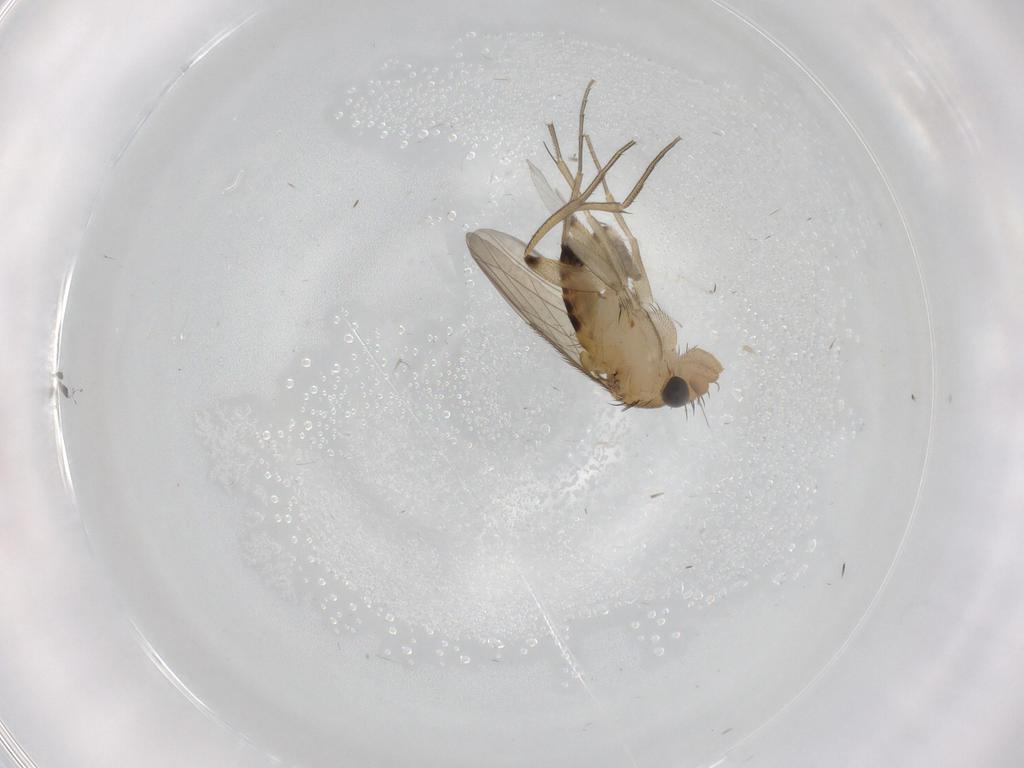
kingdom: Animalia
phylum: Arthropoda
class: Insecta
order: Diptera
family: Phoridae
